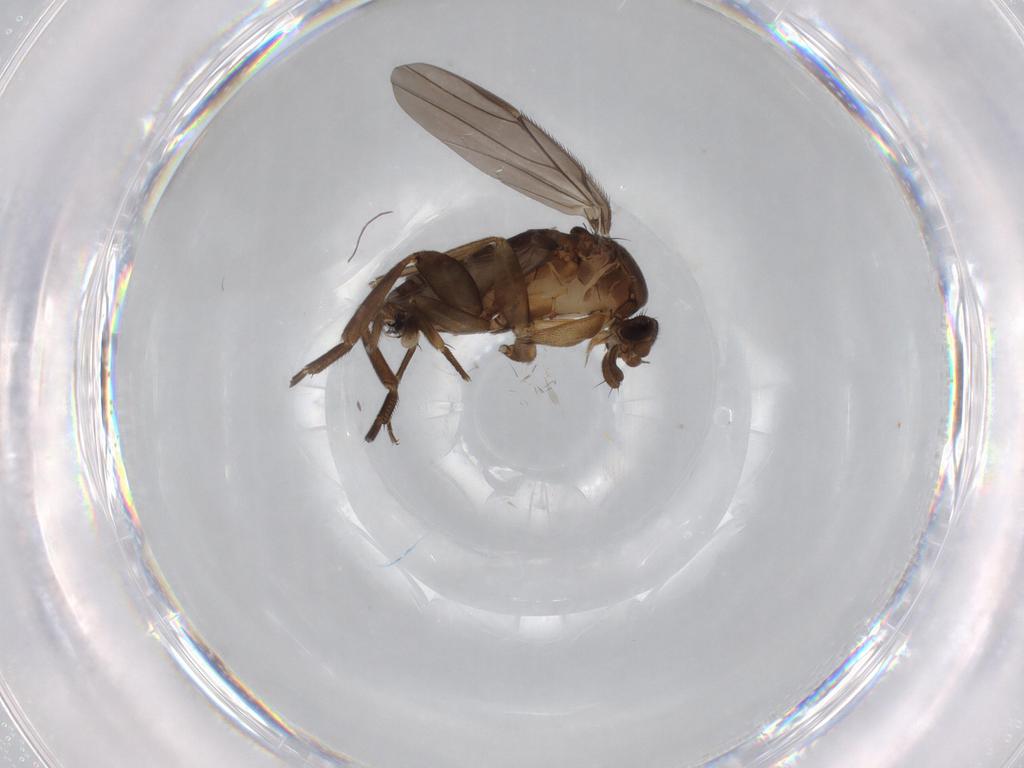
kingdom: Animalia
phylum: Arthropoda
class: Insecta
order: Diptera
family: Phoridae
